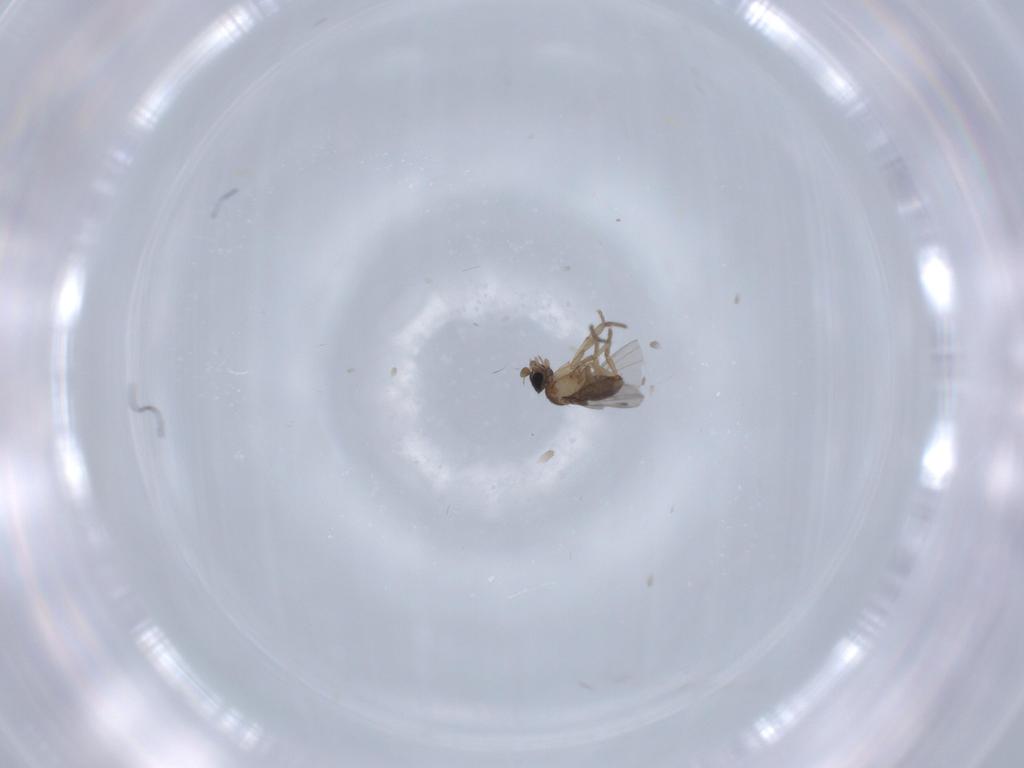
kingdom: Animalia
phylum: Arthropoda
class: Insecta
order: Diptera
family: Phoridae
